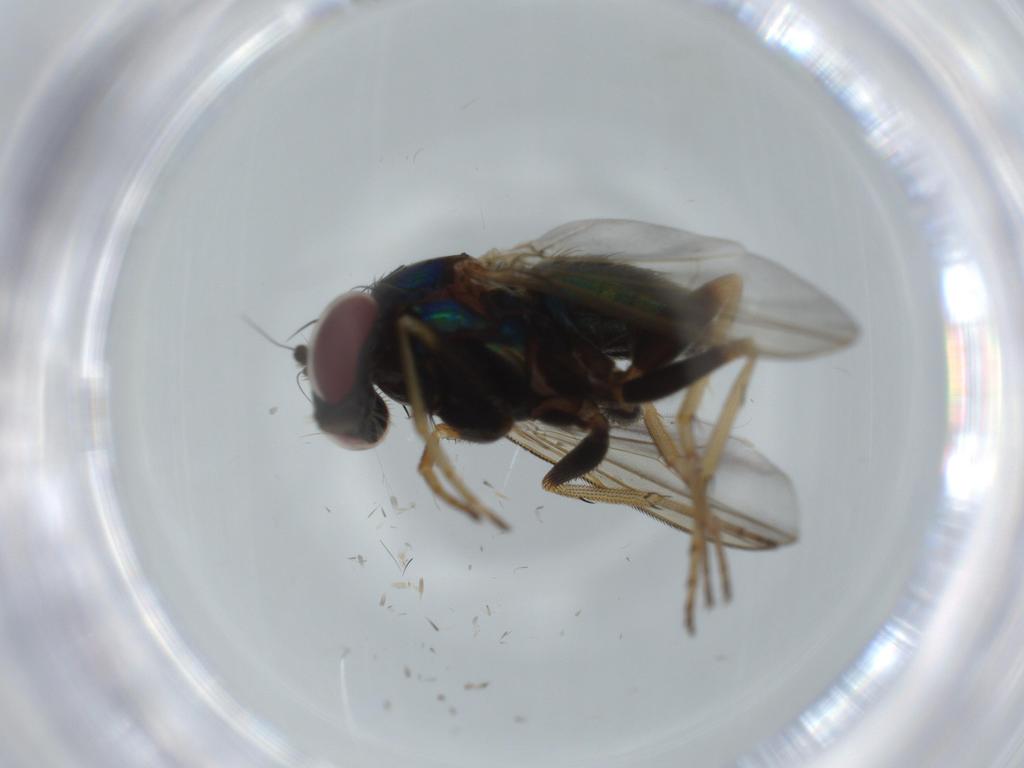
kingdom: Animalia
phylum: Arthropoda
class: Insecta
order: Diptera
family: Dolichopodidae
